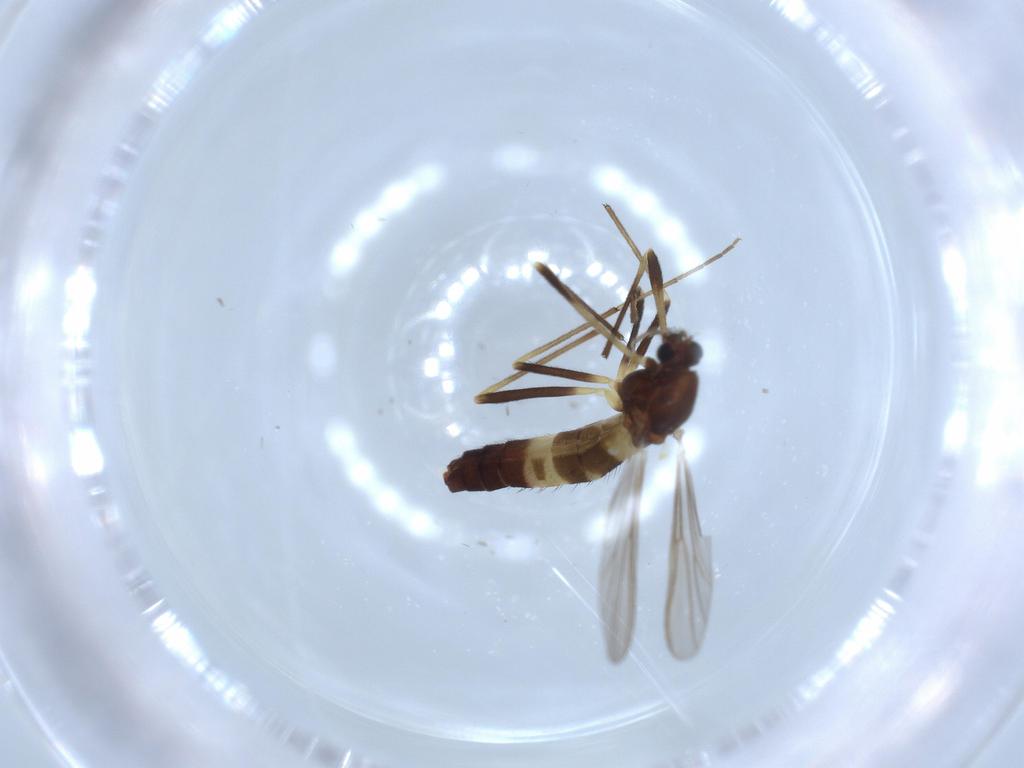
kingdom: Animalia
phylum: Arthropoda
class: Insecta
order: Diptera
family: Chironomidae
